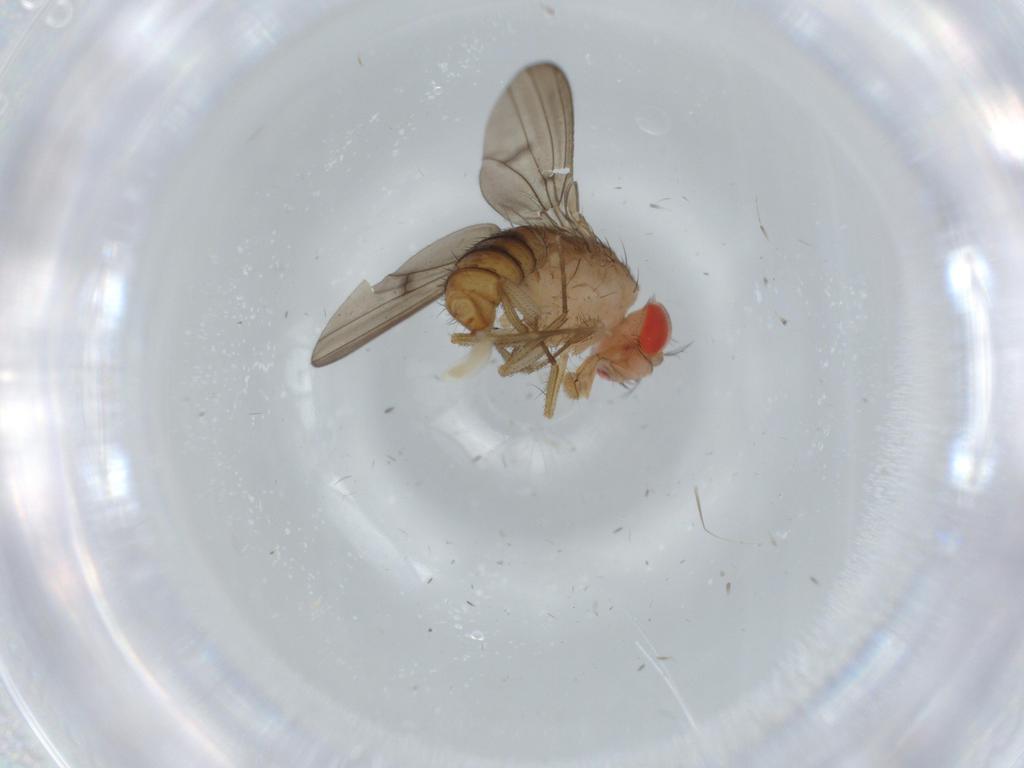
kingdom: Animalia
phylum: Arthropoda
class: Insecta
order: Diptera
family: Drosophilidae
